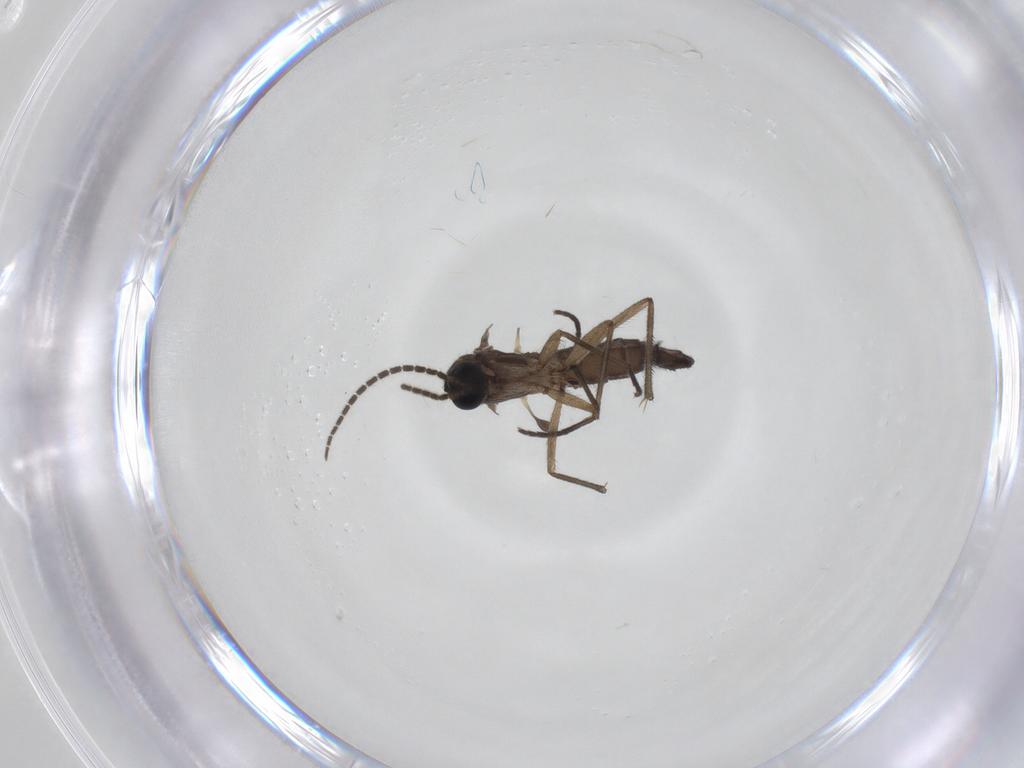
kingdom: Animalia
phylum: Arthropoda
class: Insecta
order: Diptera
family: Sciaridae
